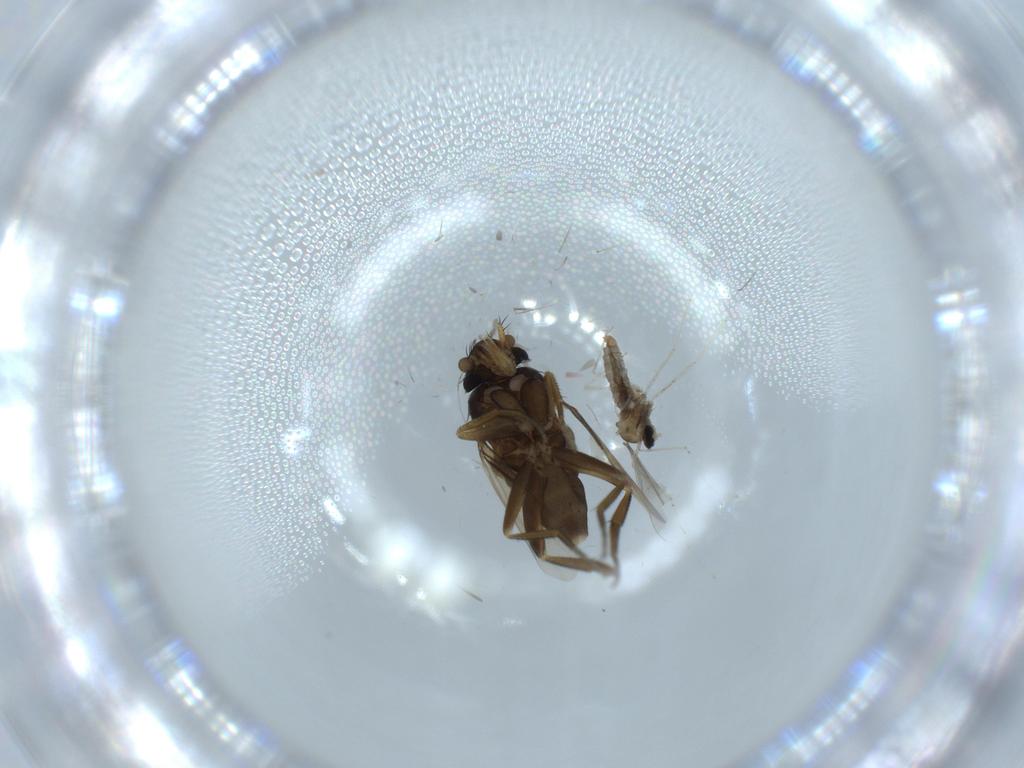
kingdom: Animalia
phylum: Arthropoda
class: Insecta
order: Diptera
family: Phoridae
